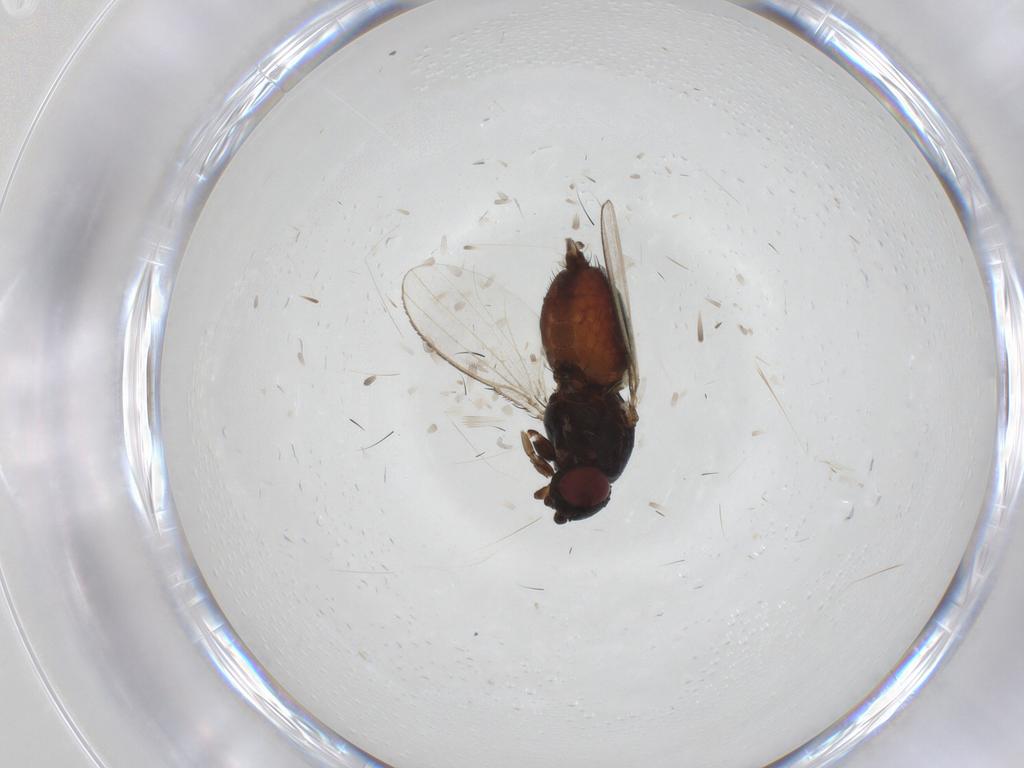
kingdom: Animalia
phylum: Arthropoda
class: Insecta
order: Diptera
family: Milichiidae
